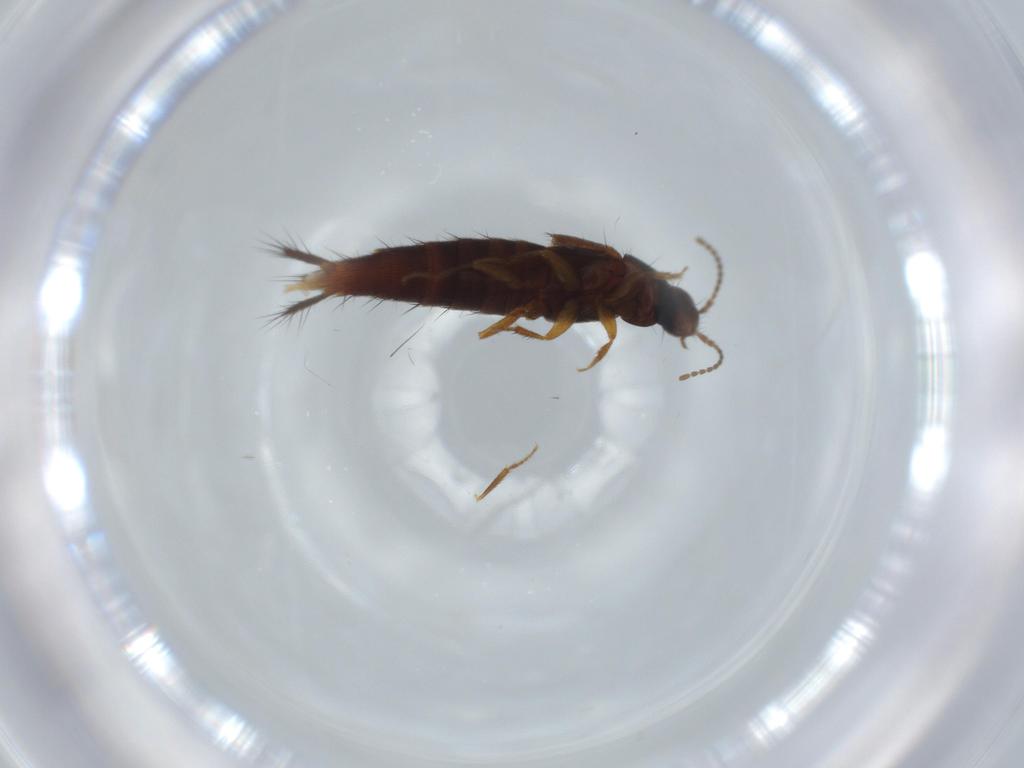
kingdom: Animalia
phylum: Arthropoda
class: Insecta
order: Coleoptera
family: Staphylinidae
